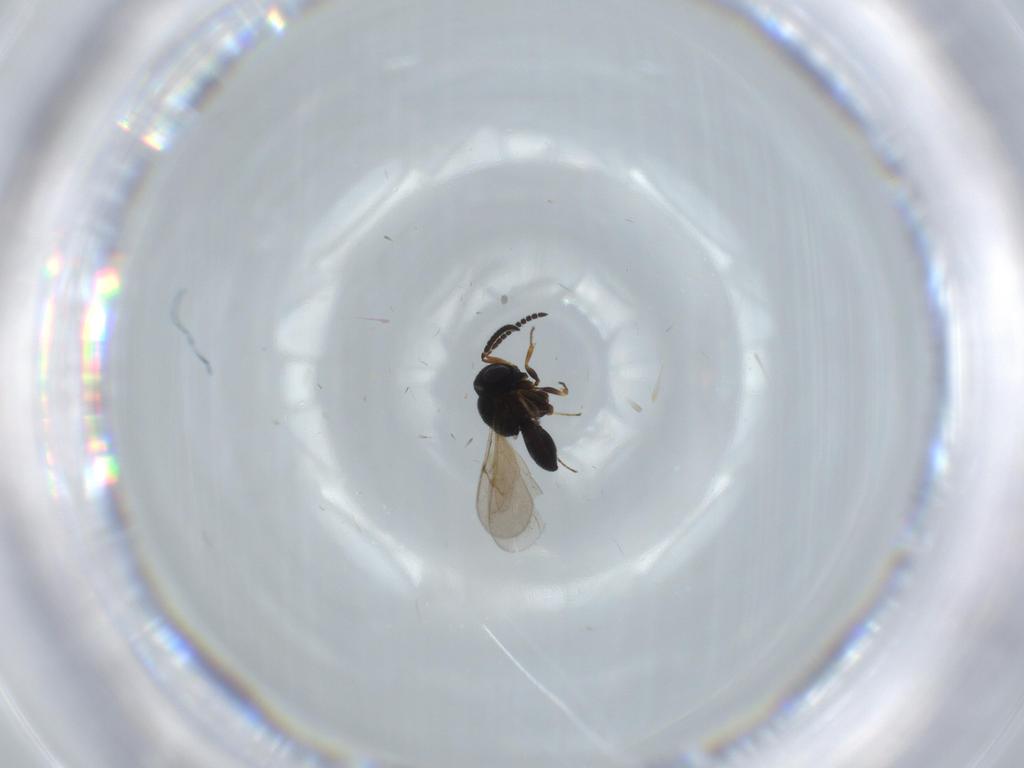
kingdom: Animalia
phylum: Arthropoda
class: Insecta
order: Hymenoptera
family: Scelionidae
